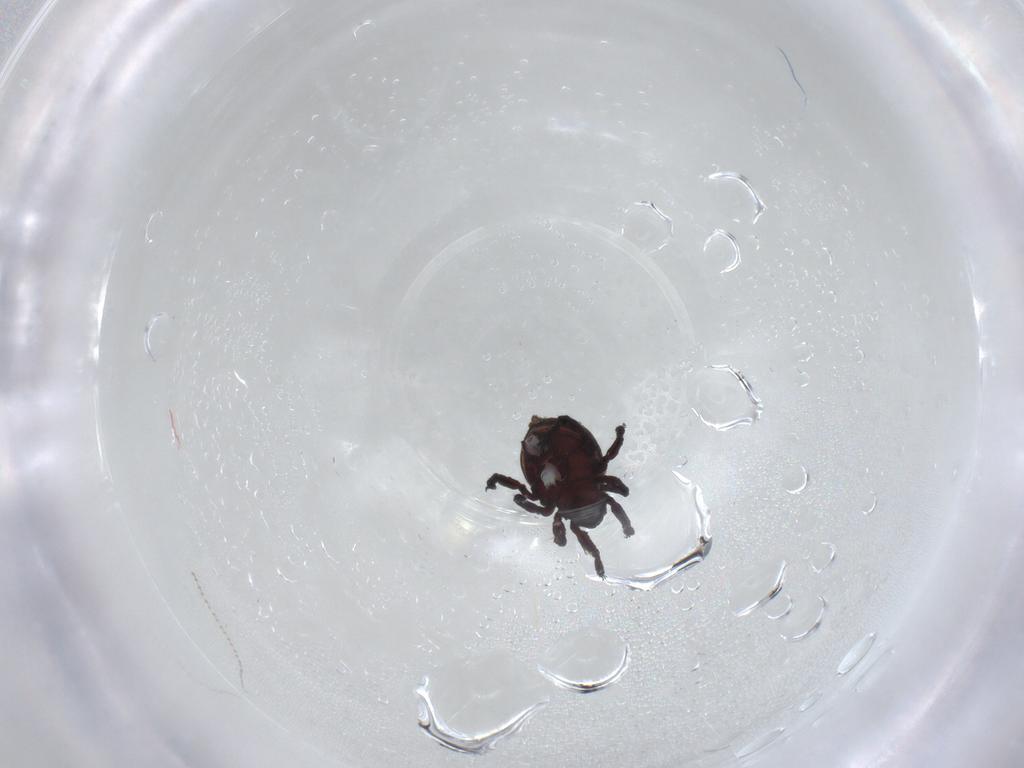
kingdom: Animalia
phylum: Arthropoda
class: Arachnida
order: Sarcoptiformes
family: Neoliodidae
